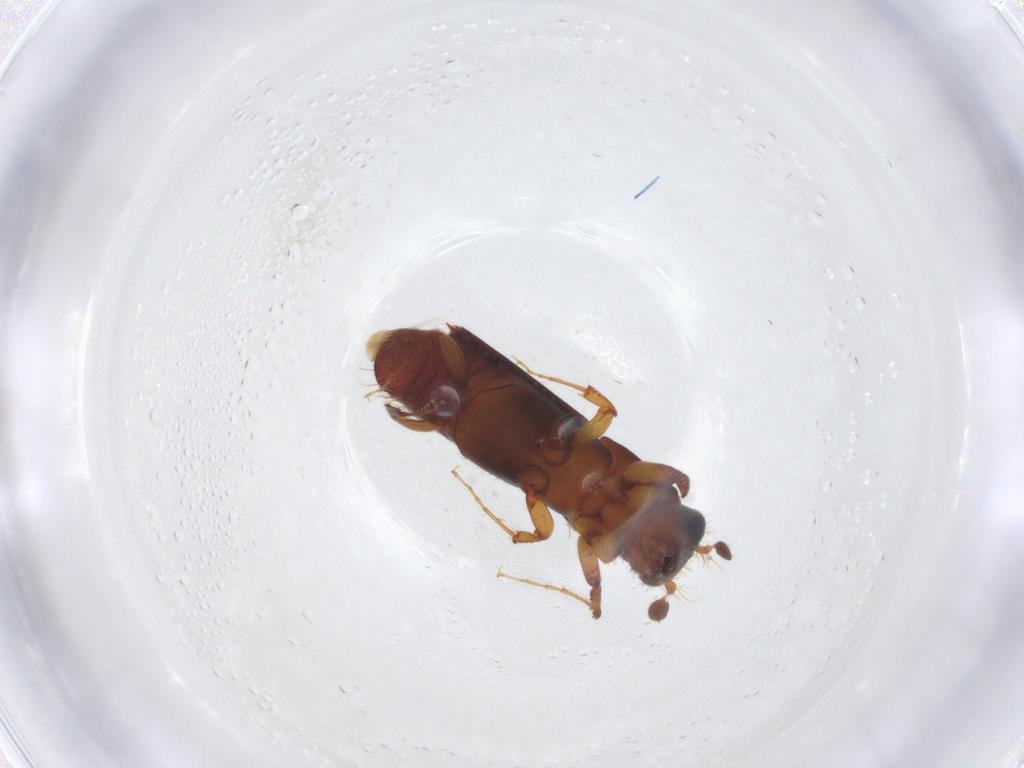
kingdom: Animalia
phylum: Arthropoda
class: Insecta
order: Coleoptera
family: Curculionidae
